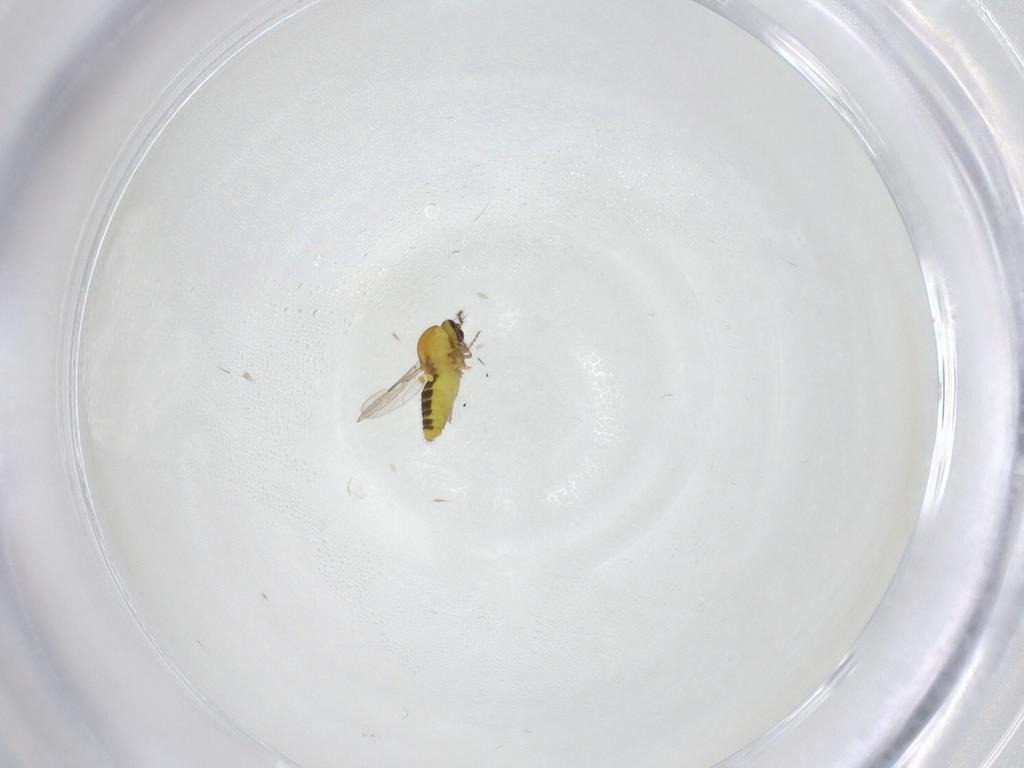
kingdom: Animalia
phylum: Arthropoda
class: Insecta
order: Diptera
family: Ceratopogonidae
